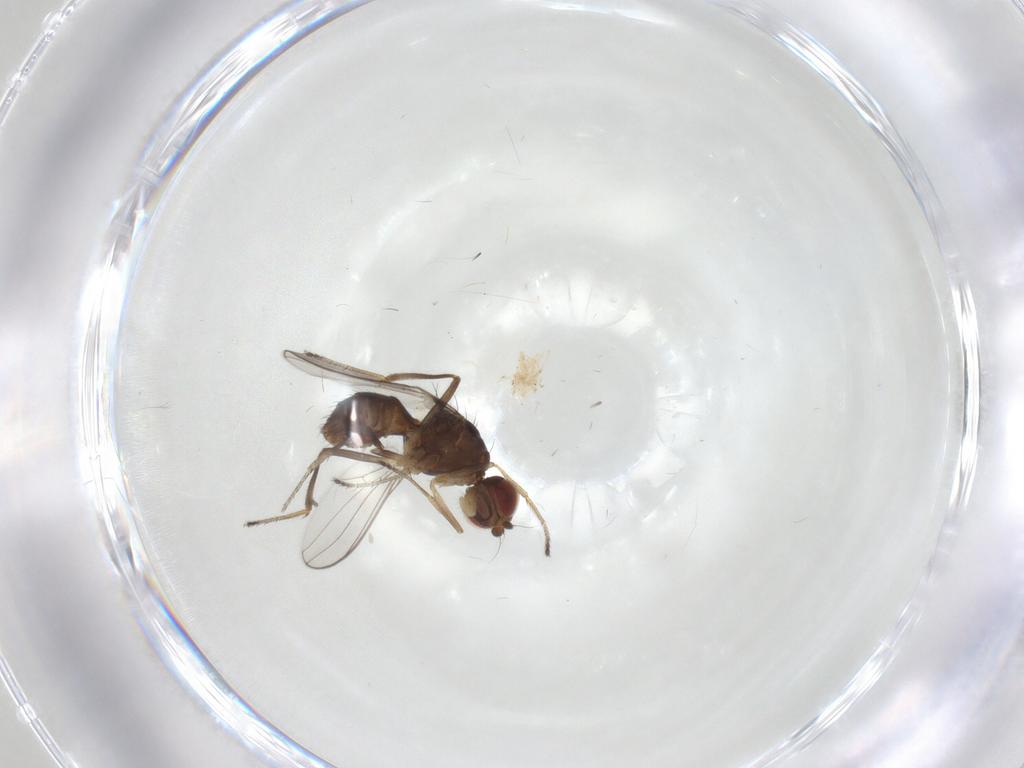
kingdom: Animalia
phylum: Arthropoda
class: Insecta
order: Diptera
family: Sepsidae
